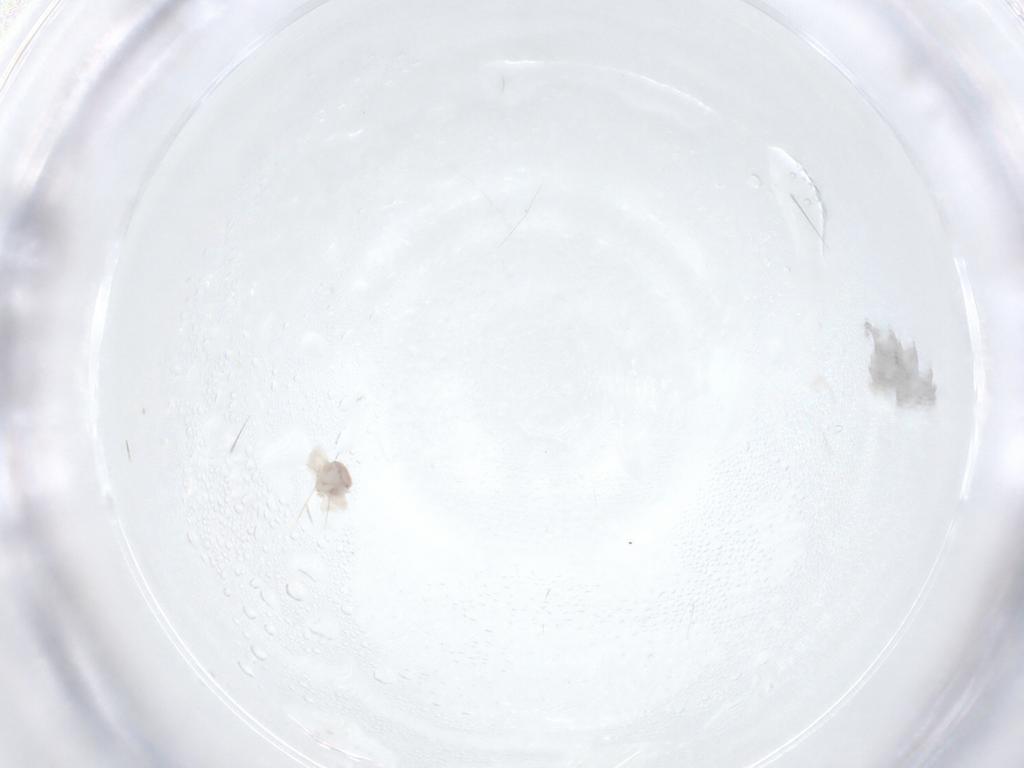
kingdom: Animalia
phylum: Arthropoda
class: Arachnida
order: Trombidiformes
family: Anystidae
